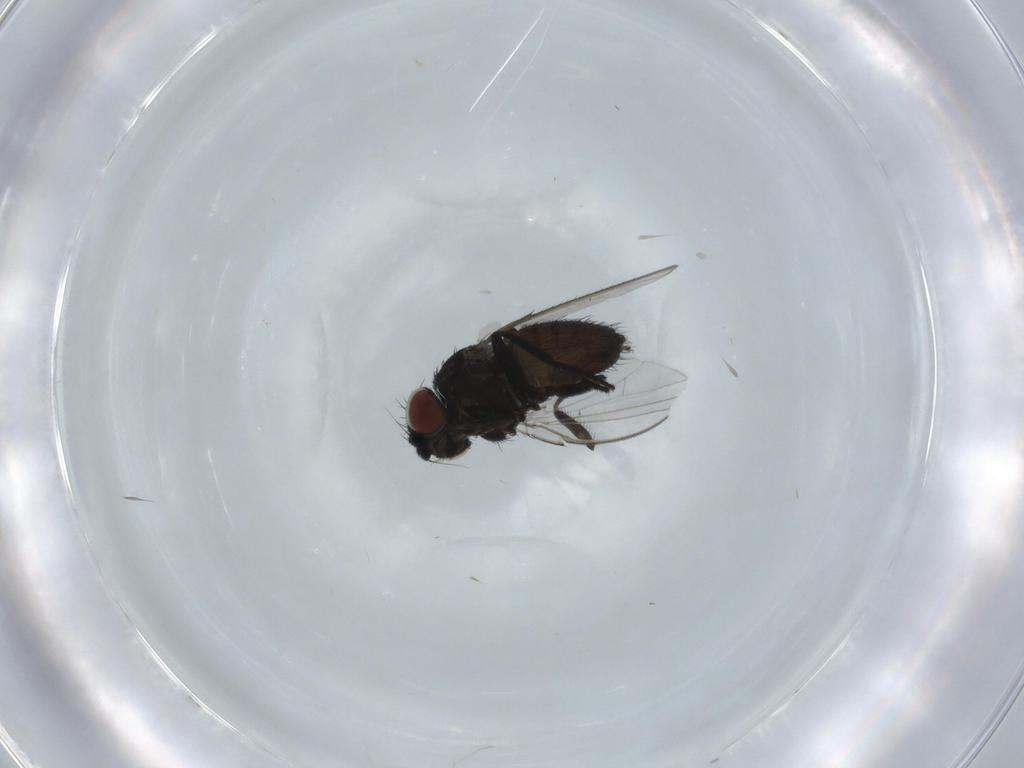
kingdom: Animalia
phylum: Arthropoda
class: Insecta
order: Diptera
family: Milichiidae
